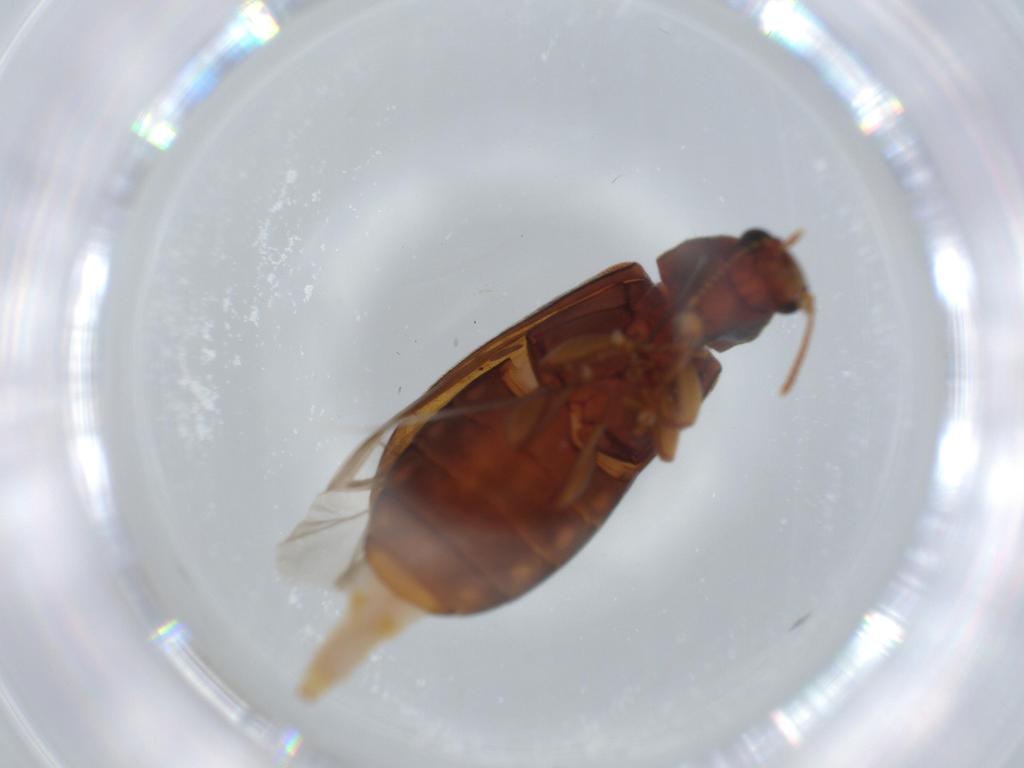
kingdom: Animalia
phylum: Arthropoda
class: Insecta
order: Coleoptera
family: Mycteridae
